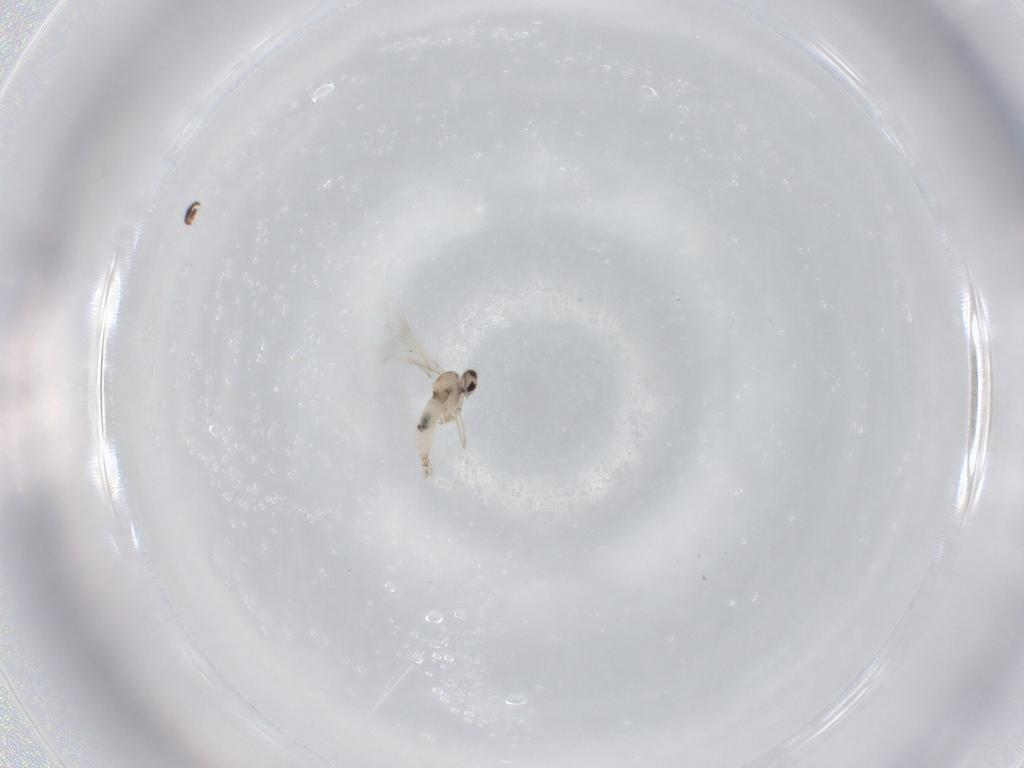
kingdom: Animalia
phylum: Arthropoda
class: Insecta
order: Diptera
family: Cecidomyiidae
